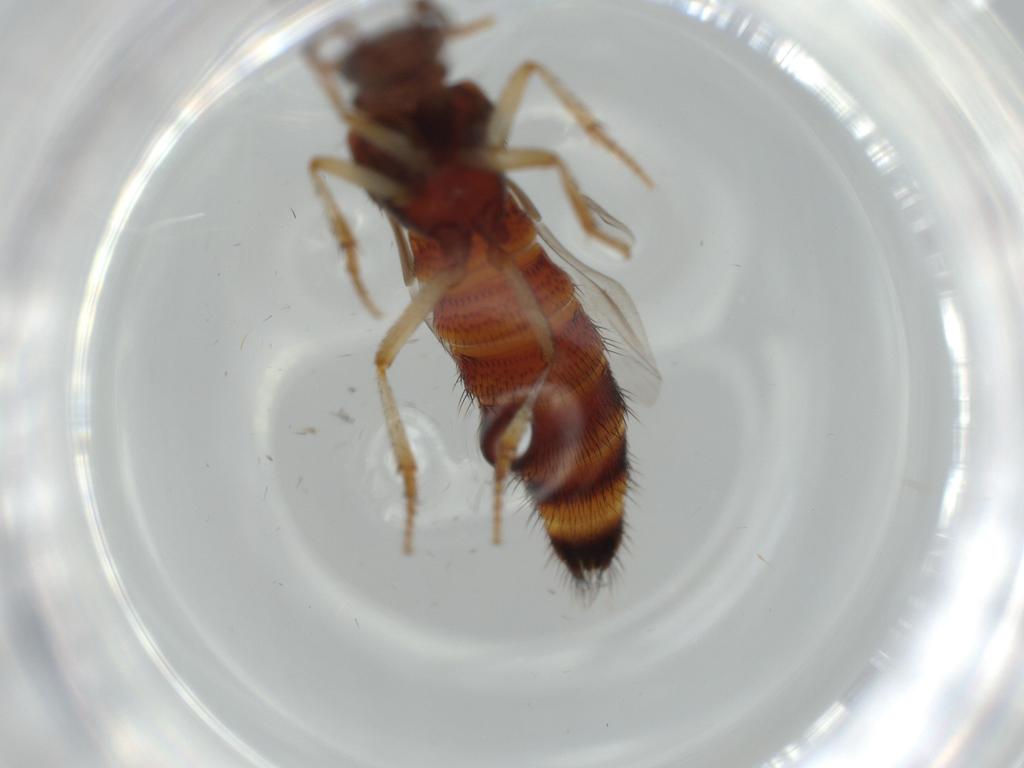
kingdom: Animalia
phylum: Arthropoda
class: Insecta
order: Coleoptera
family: Staphylinidae
